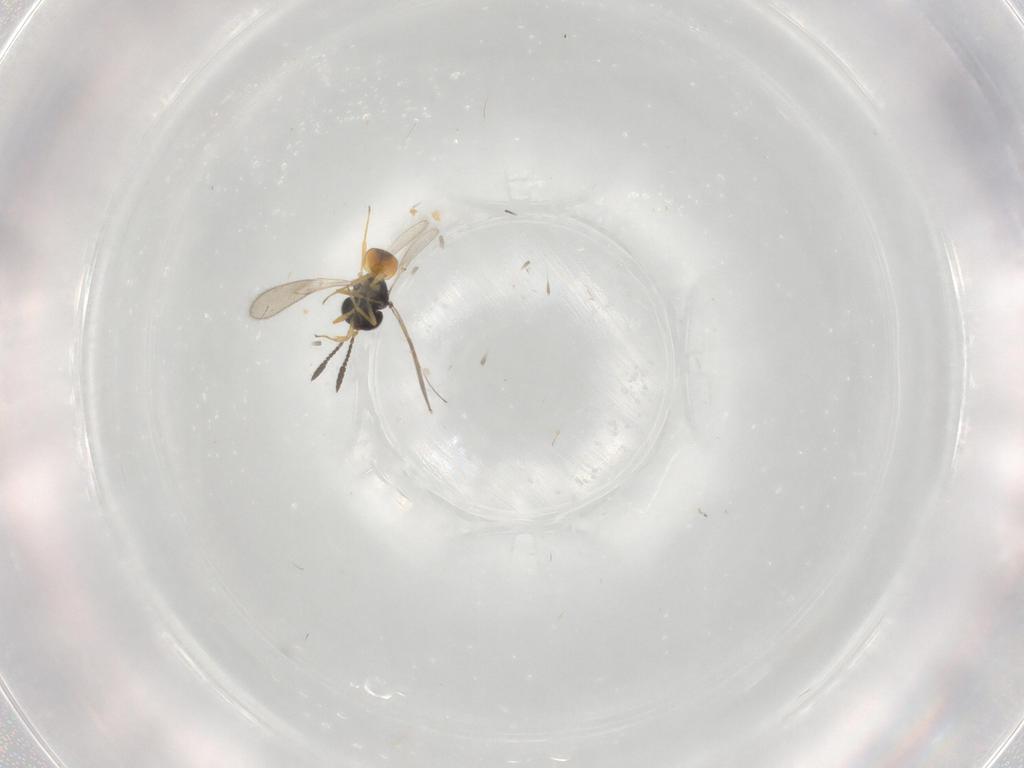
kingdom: Animalia
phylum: Arthropoda
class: Insecta
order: Hymenoptera
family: Scelionidae
